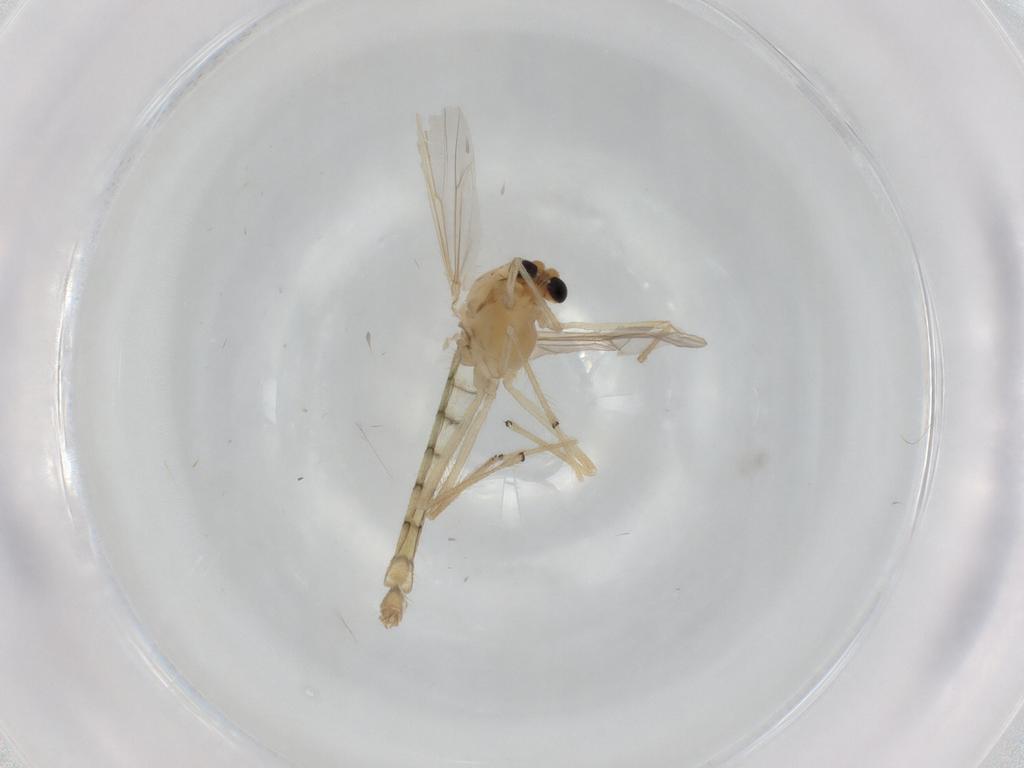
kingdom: Animalia
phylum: Arthropoda
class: Insecta
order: Diptera
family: Chironomidae
